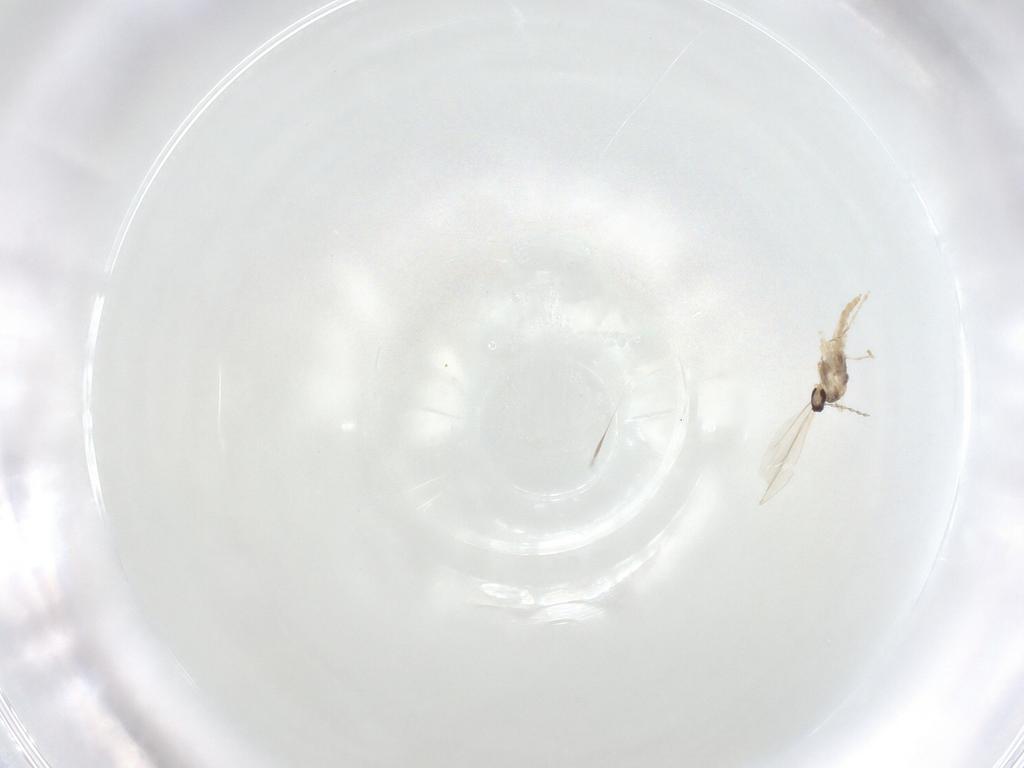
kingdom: Animalia
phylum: Arthropoda
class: Insecta
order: Diptera
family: Cecidomyiidae
